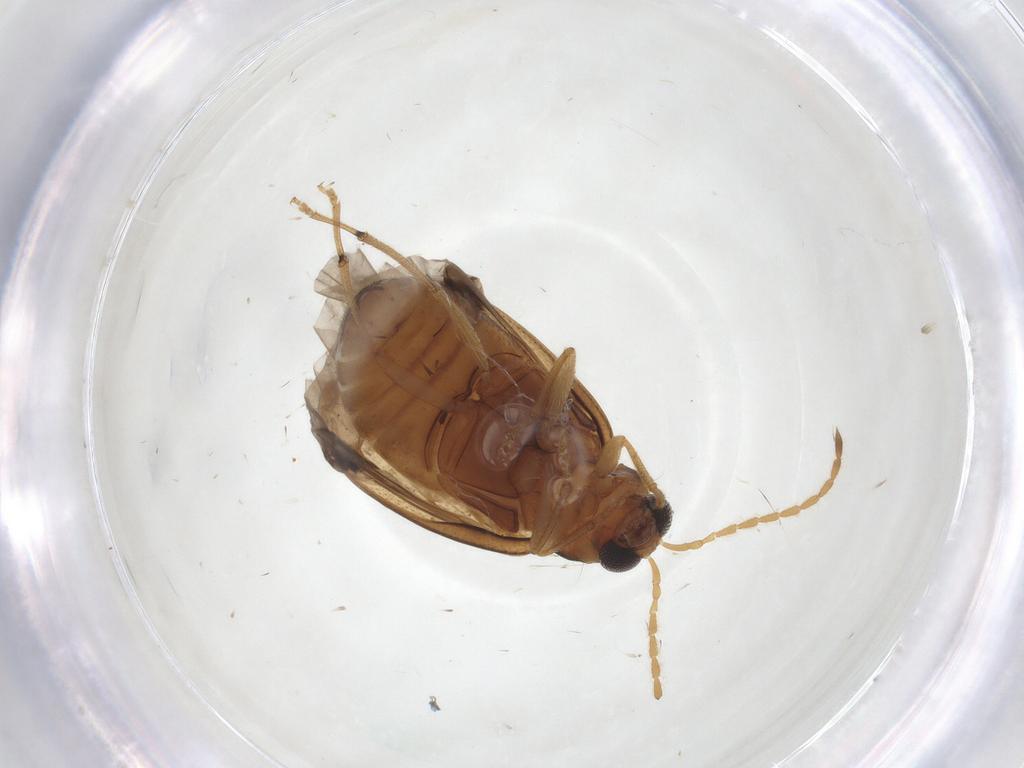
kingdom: Animalia
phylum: Arthropoda
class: Insecta
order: Coleoptera
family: Chrysomelidae
